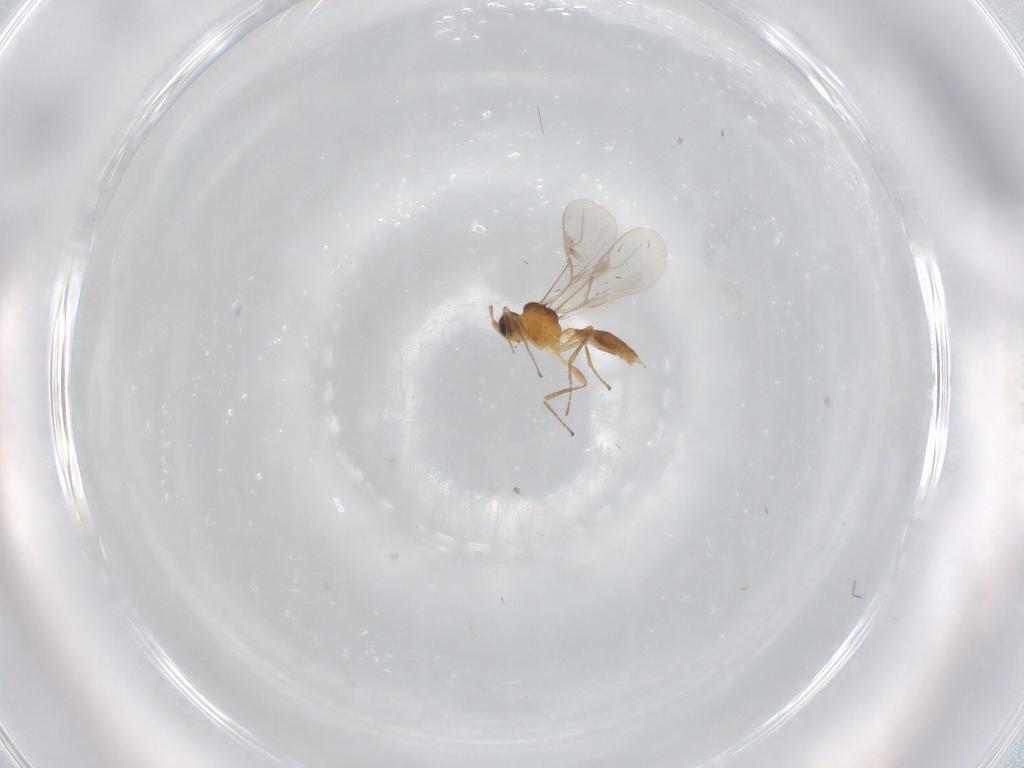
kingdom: Animalia
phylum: Arthropoda
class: Insecta
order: Hymenoptera
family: Braconidae
